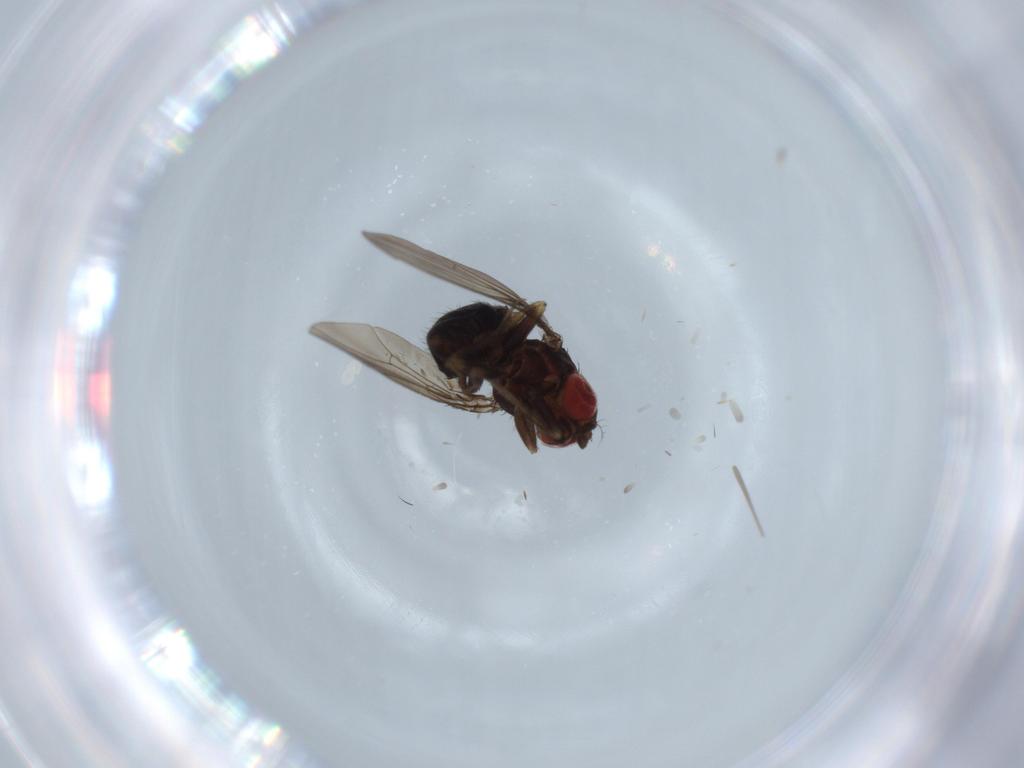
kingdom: Animalia
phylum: Arthropoda
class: Insecta
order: Diptera
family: Drosophilidae
